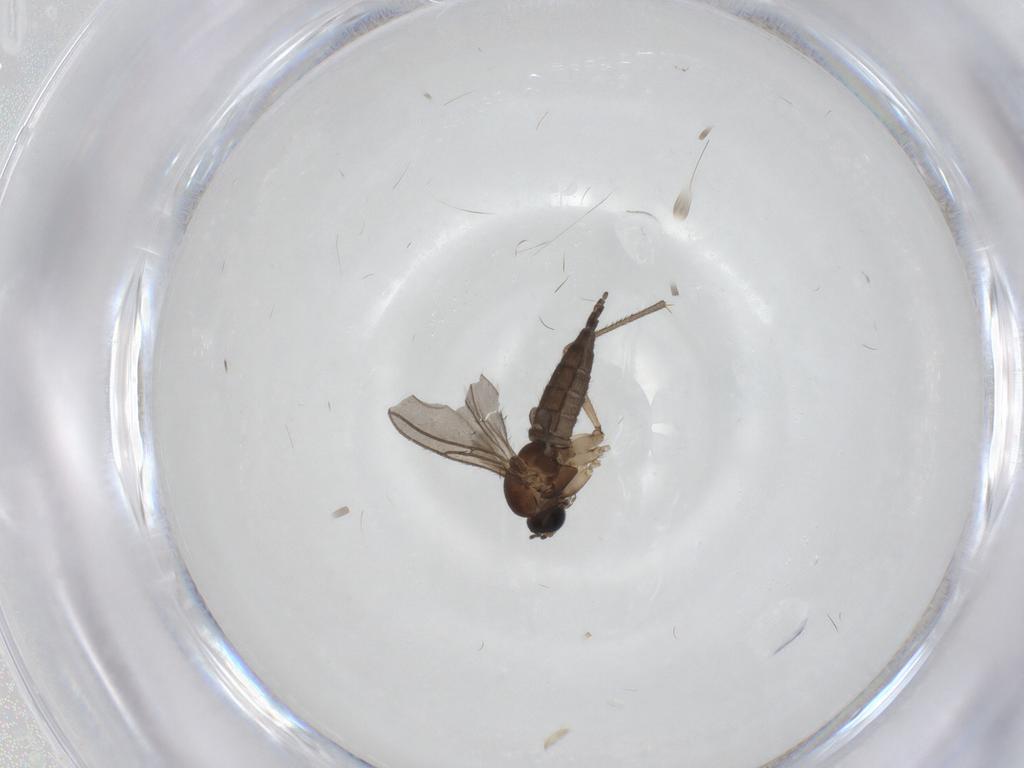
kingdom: Animalia
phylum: Arthropoda
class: Insecta
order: Diptera
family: Sciaridae
